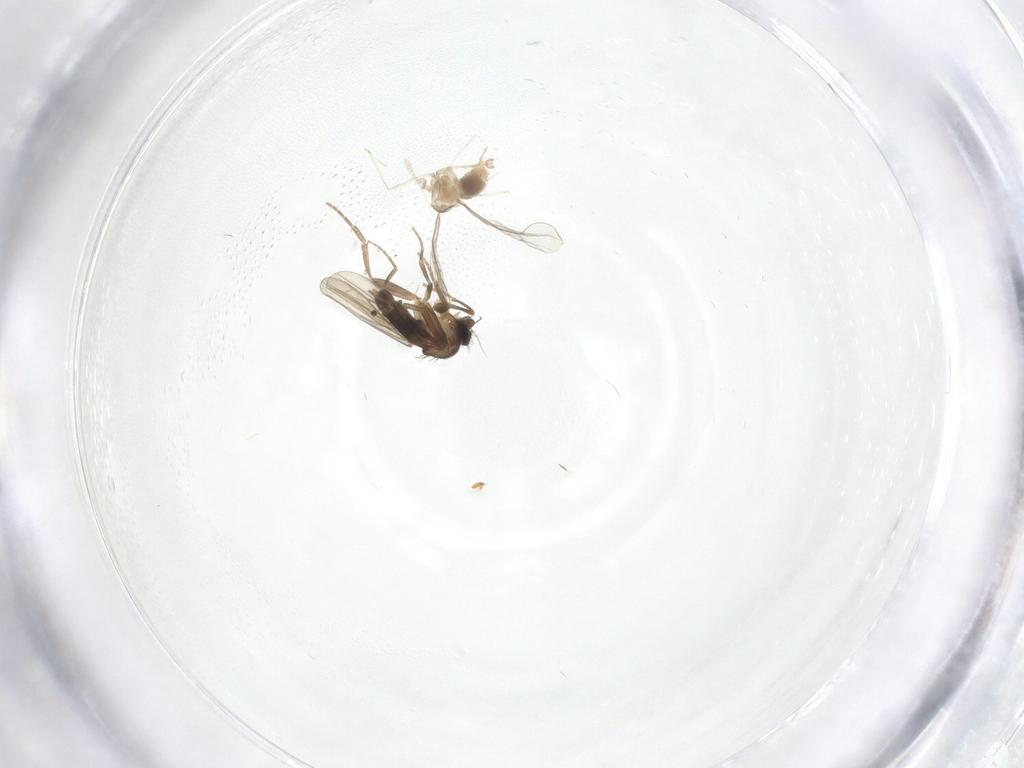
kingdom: Animalia
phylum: Arthropoda
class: Insecta
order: Diptera
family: Phoridae
